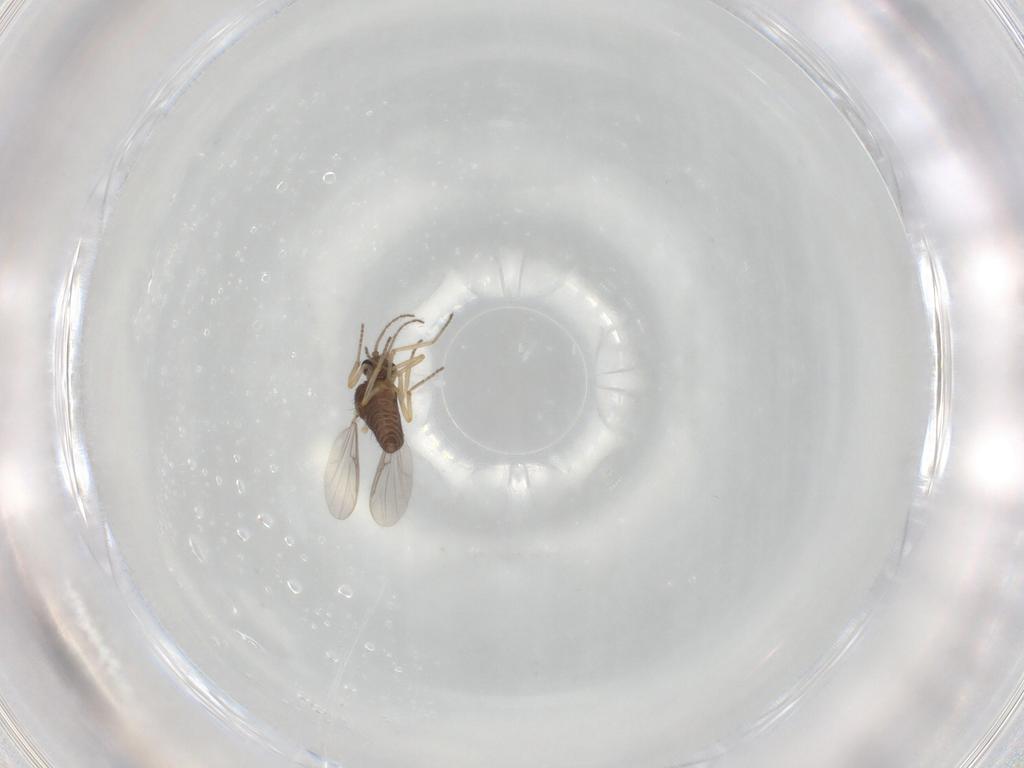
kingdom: Animalia
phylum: Arthropoda
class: Insecta
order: Diptera
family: Ceratopogonidae
